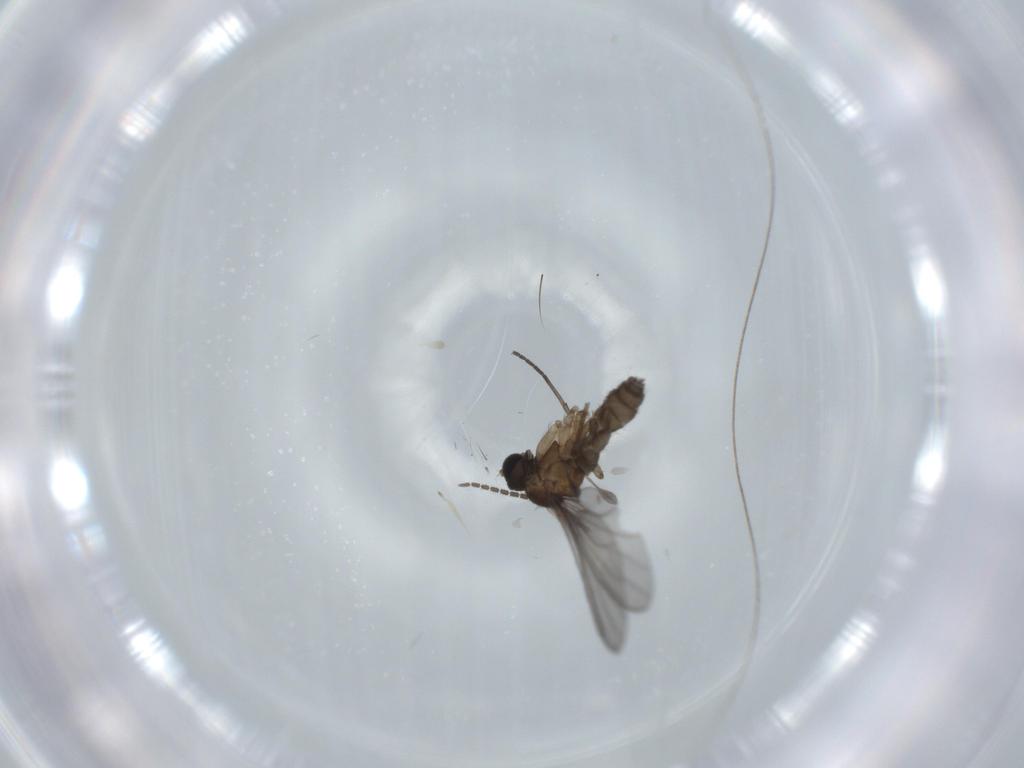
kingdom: Animalia
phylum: Arthropoda
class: Insecta
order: Diptera
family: Sciaridae
